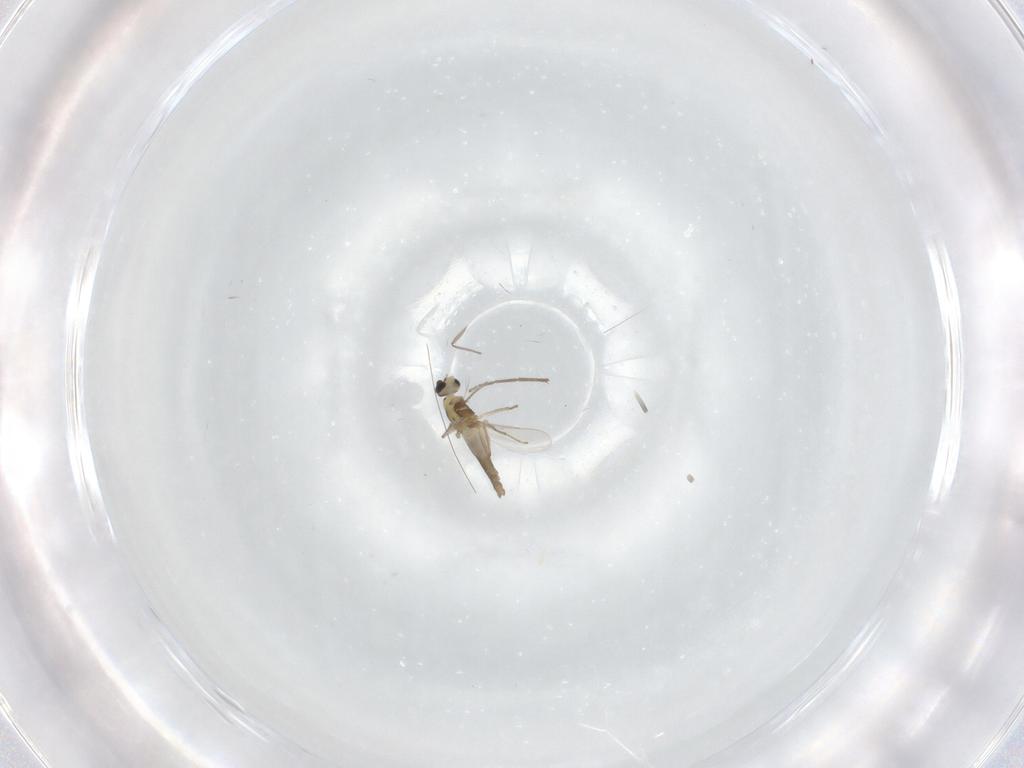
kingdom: Animalia
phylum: Arthropoda
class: Insecta
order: Diptera
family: Chironomidae
